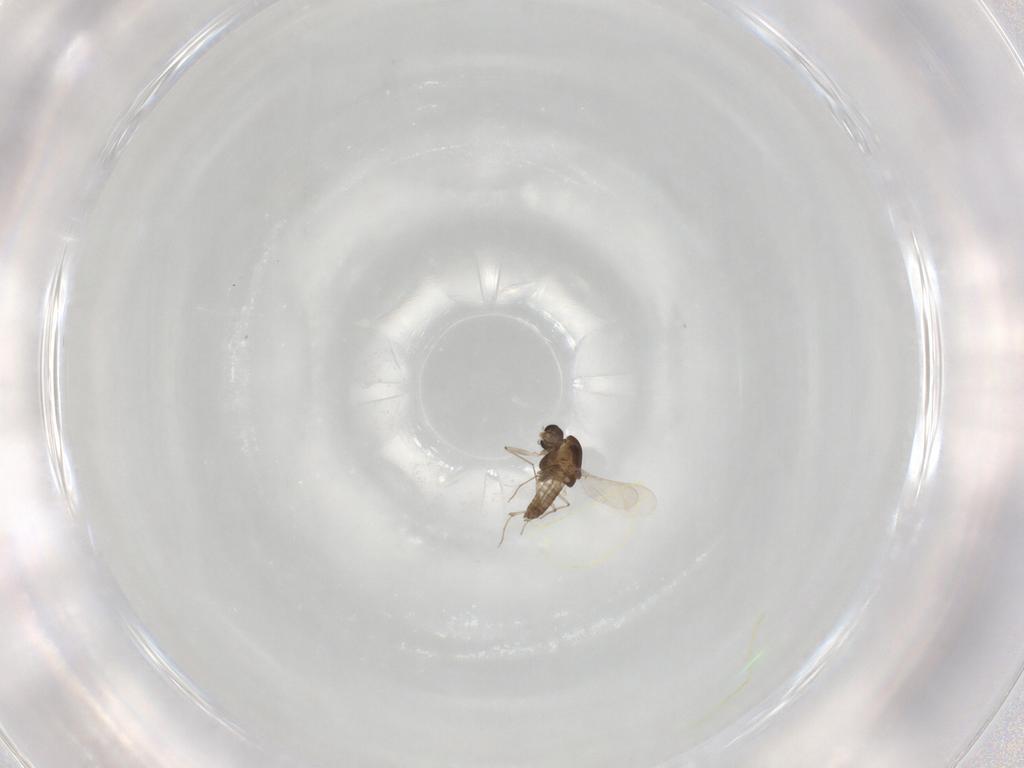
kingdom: Animalia
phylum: Arthropoda
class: Insecta
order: Diptera
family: Chironomidae
